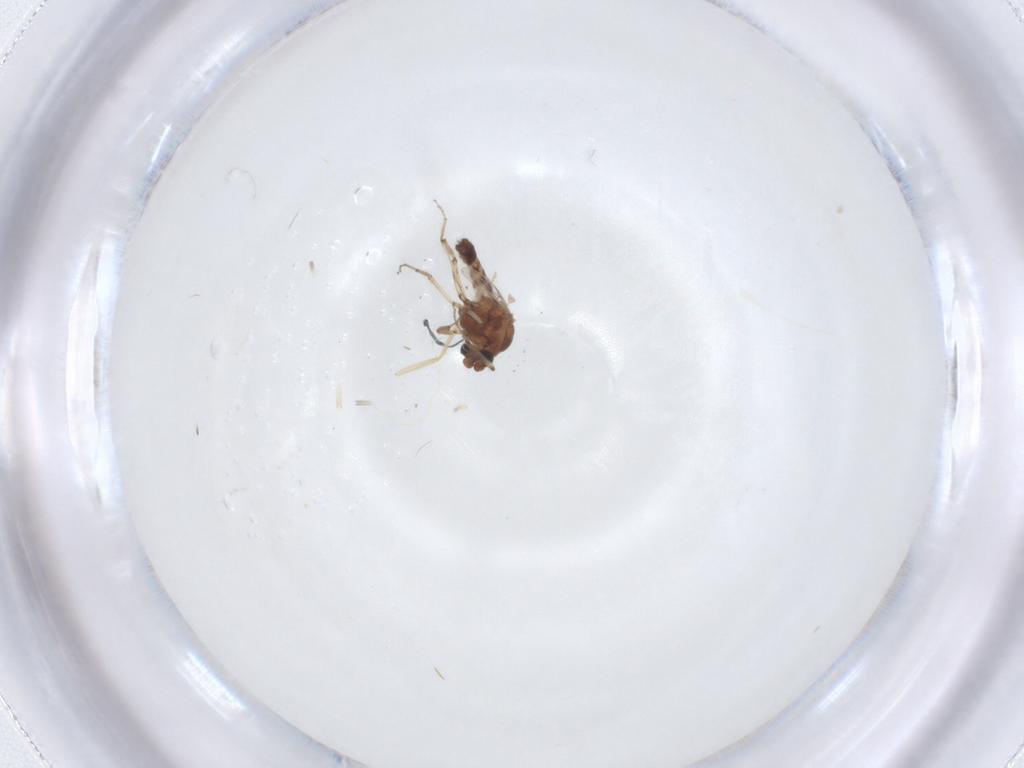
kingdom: Animalia
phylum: Arthropoda
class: Insecta
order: Diptera
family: Ceratopogonidae
